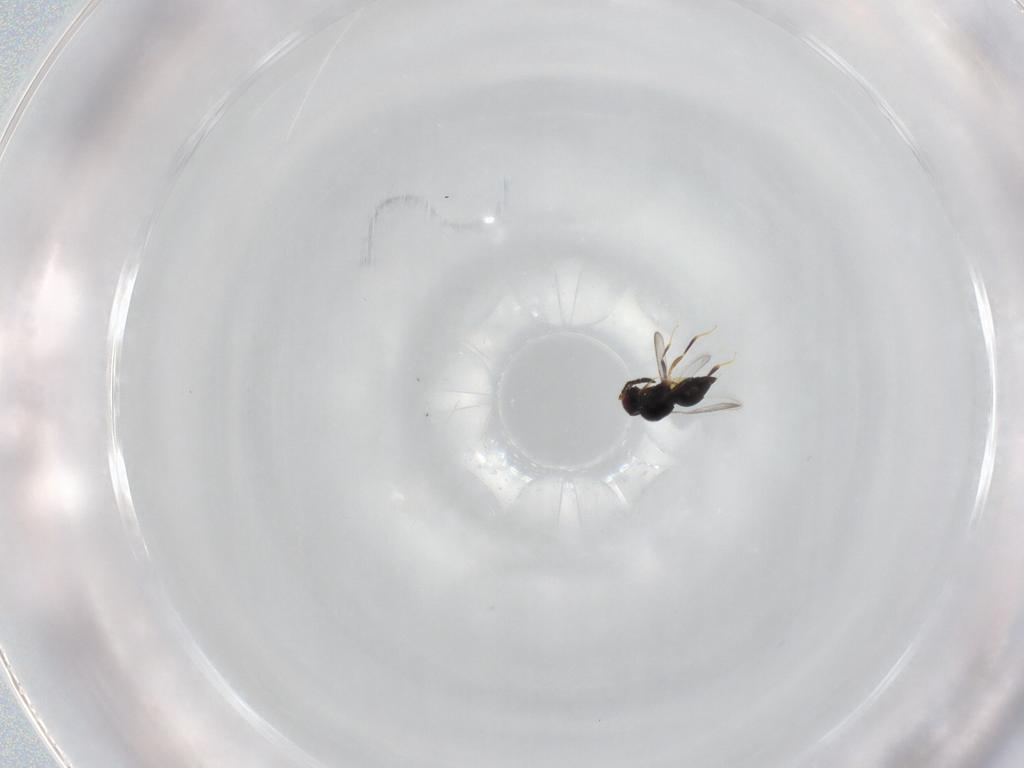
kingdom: Animalia
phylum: Arthropoda
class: Insecta
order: Hymenoptera
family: Ceraphronidae
